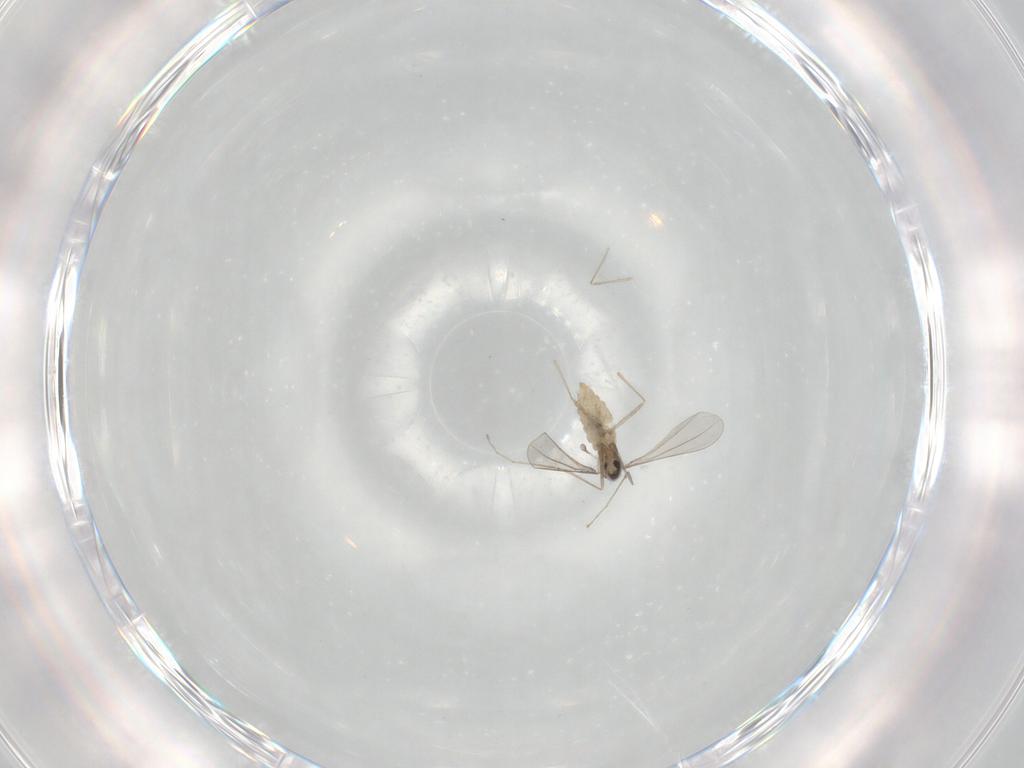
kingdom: Animalia
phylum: Arthropoda
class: Insecta
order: Diptera
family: Cecidomyiidae
